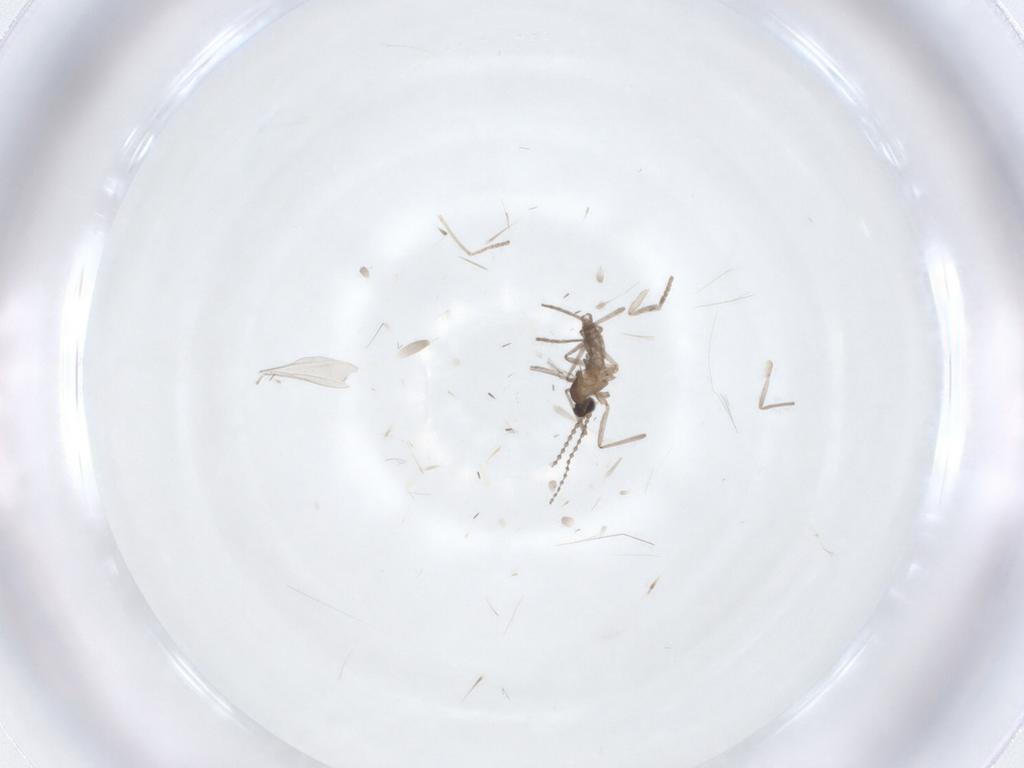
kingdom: Animalia
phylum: Arthropoda
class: Insecta
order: Diptera
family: Cecidomyiidae
